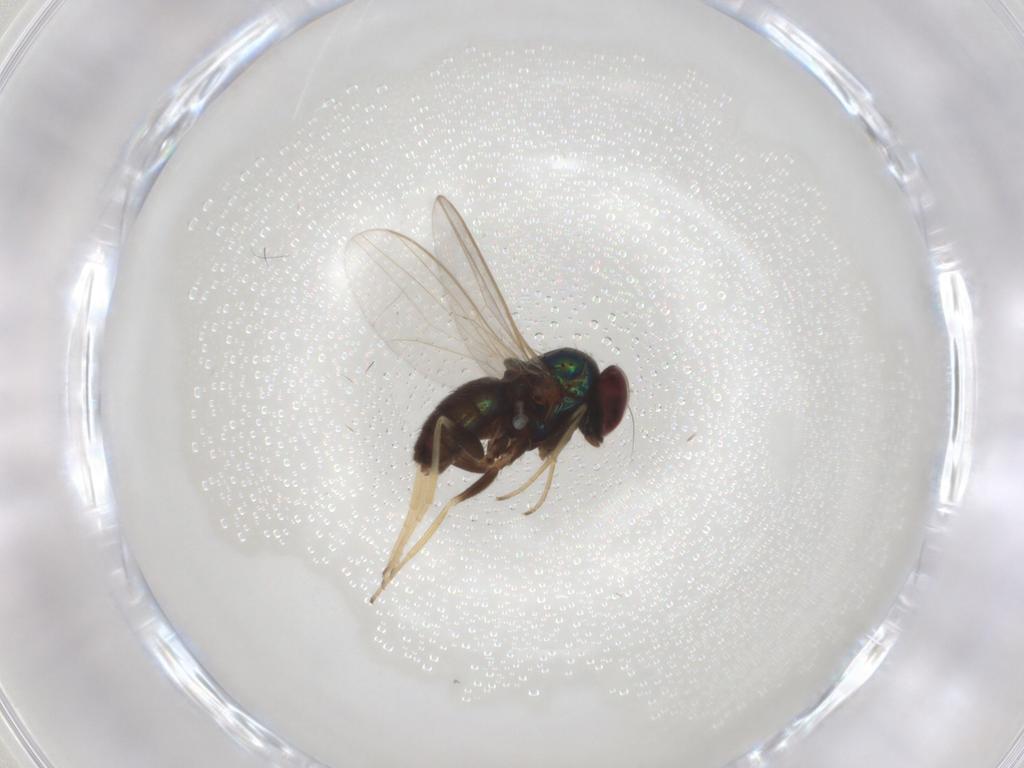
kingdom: Animalia
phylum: Arthropoda
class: Insecta
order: Diptera
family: Dolichopodidae
